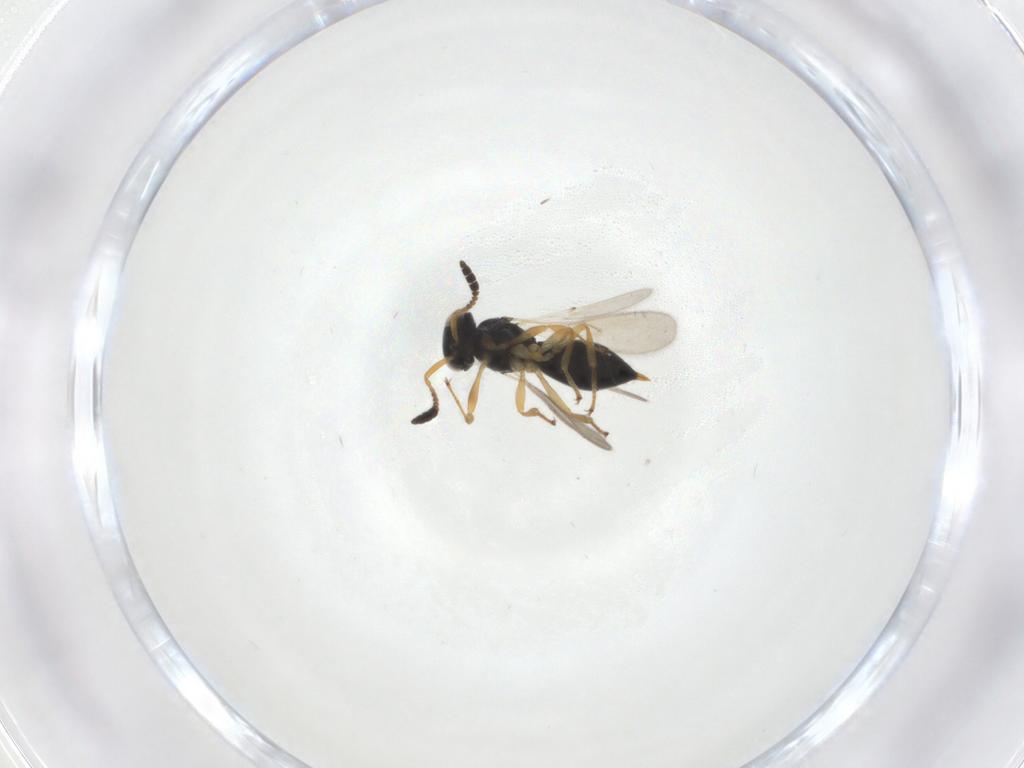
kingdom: Animalia
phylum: Arthropoda
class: Insecta
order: Hymenoptera
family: Scelionidae
